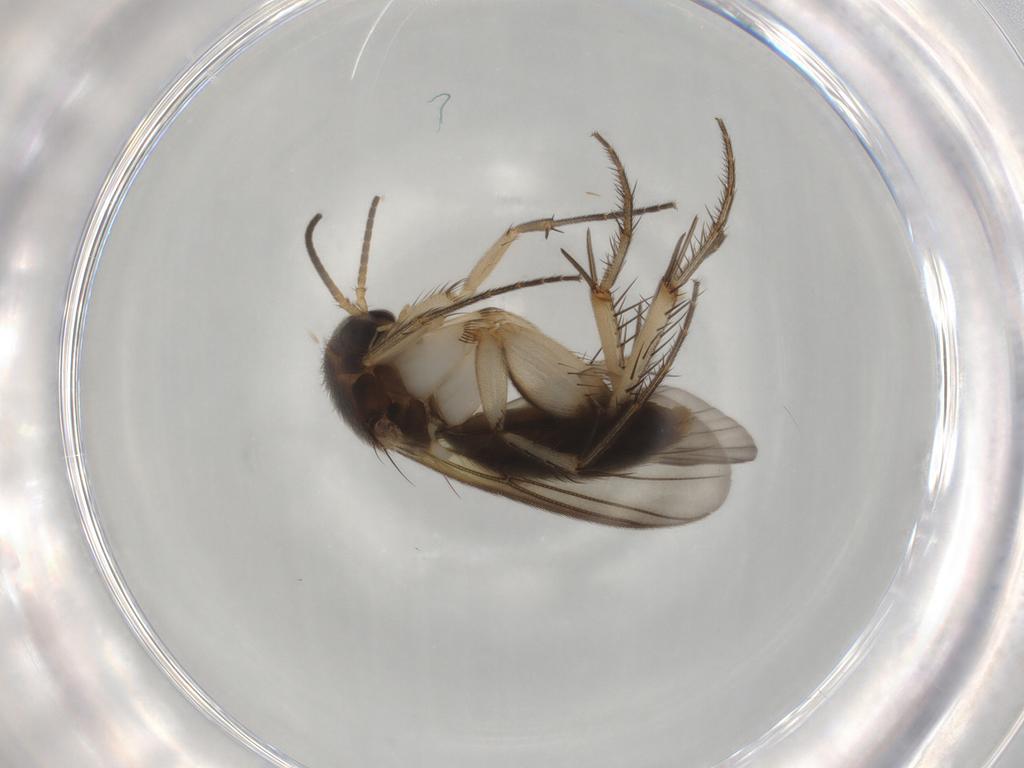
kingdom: Animalia
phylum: Arthropoda
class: Insecta
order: Diptera
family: Mycetophilidae
